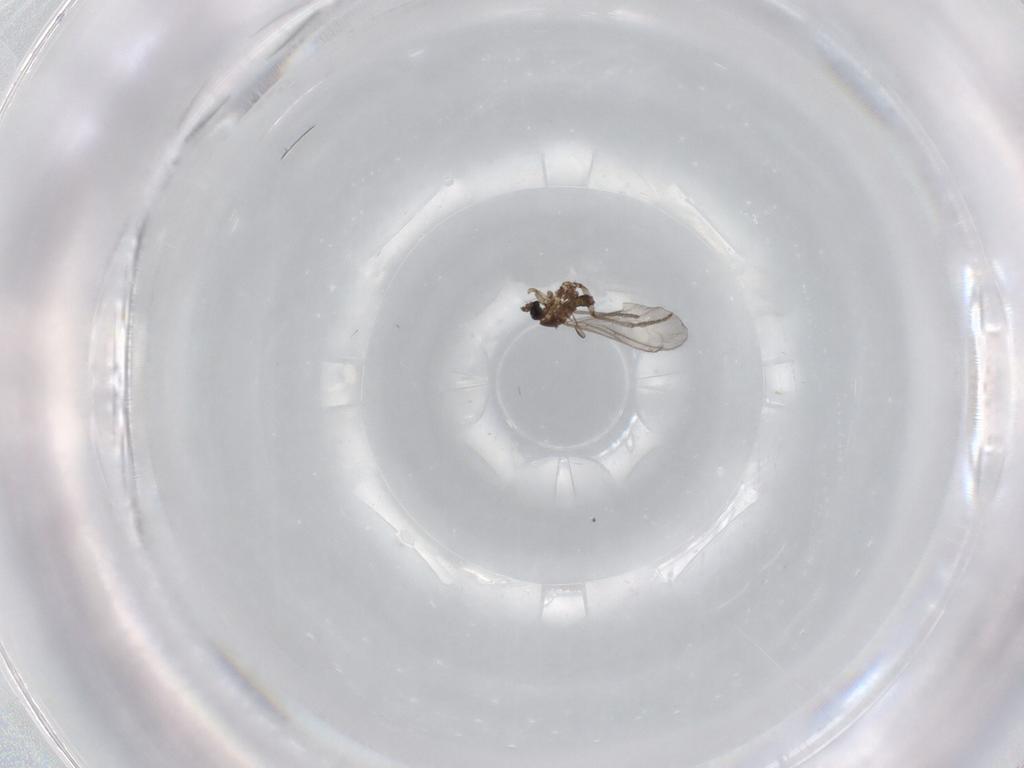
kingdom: Animalia
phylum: Arthropoda
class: Insecta
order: Diptera
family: Sciaridae
